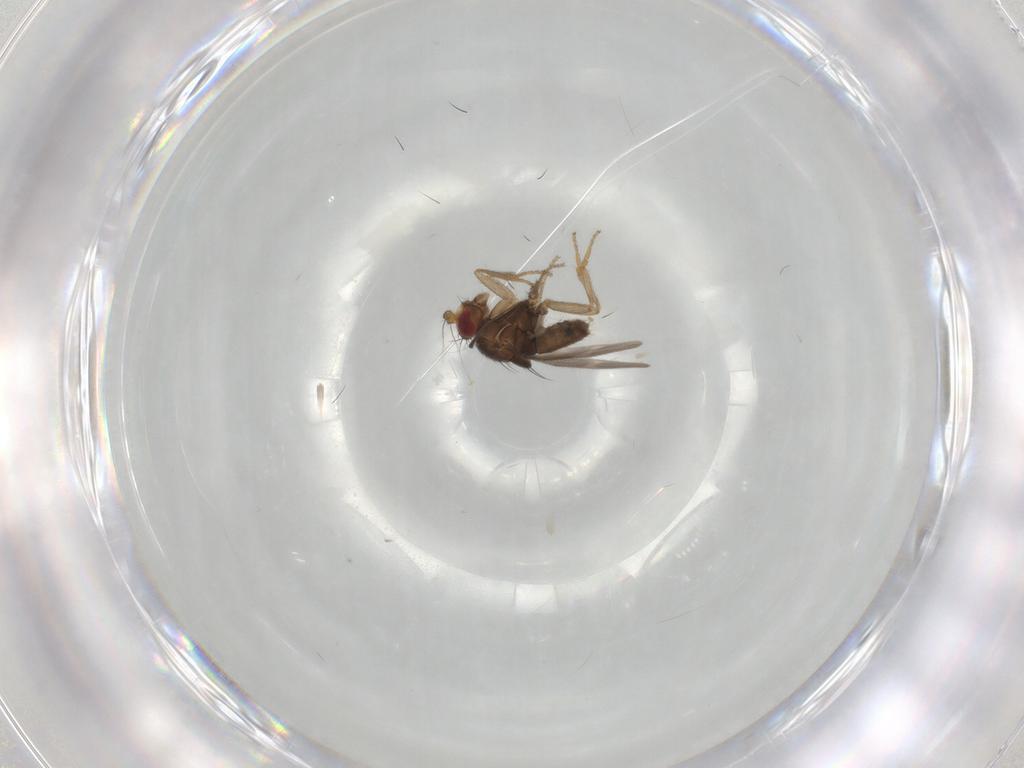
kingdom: Animalia
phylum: Arthropoda
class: Insecta
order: Diptera
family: Sphaeroceridae
